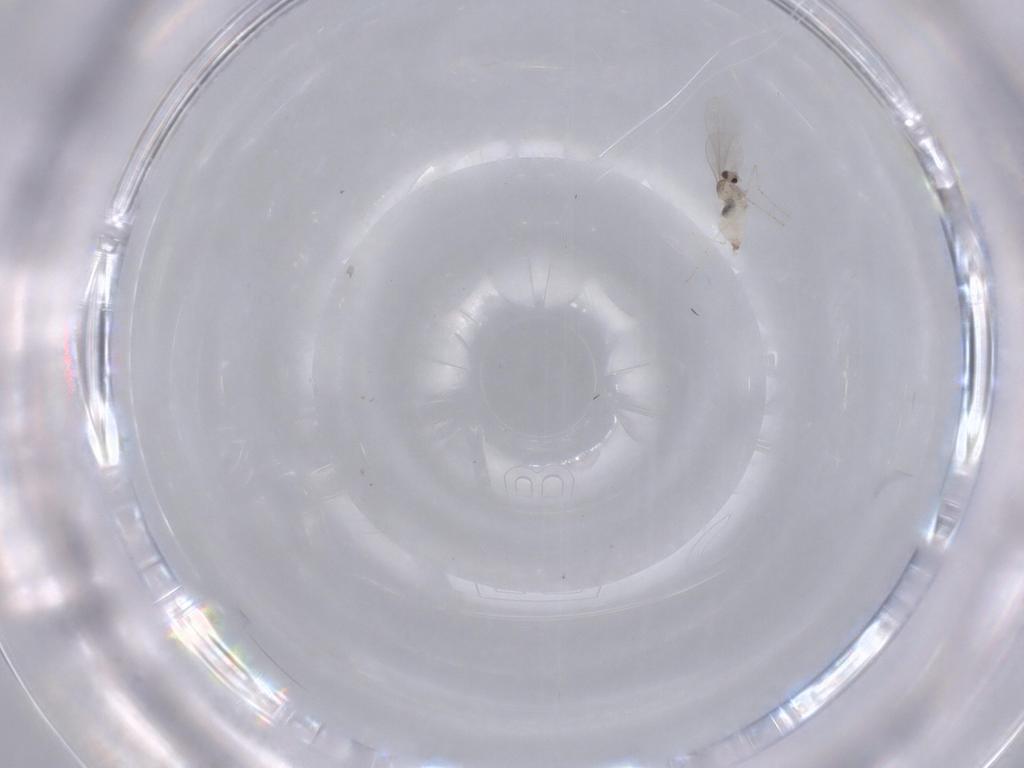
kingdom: Animalia
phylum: Arthropoda
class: Insecta
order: Diptera
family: Cecidomyiidae
